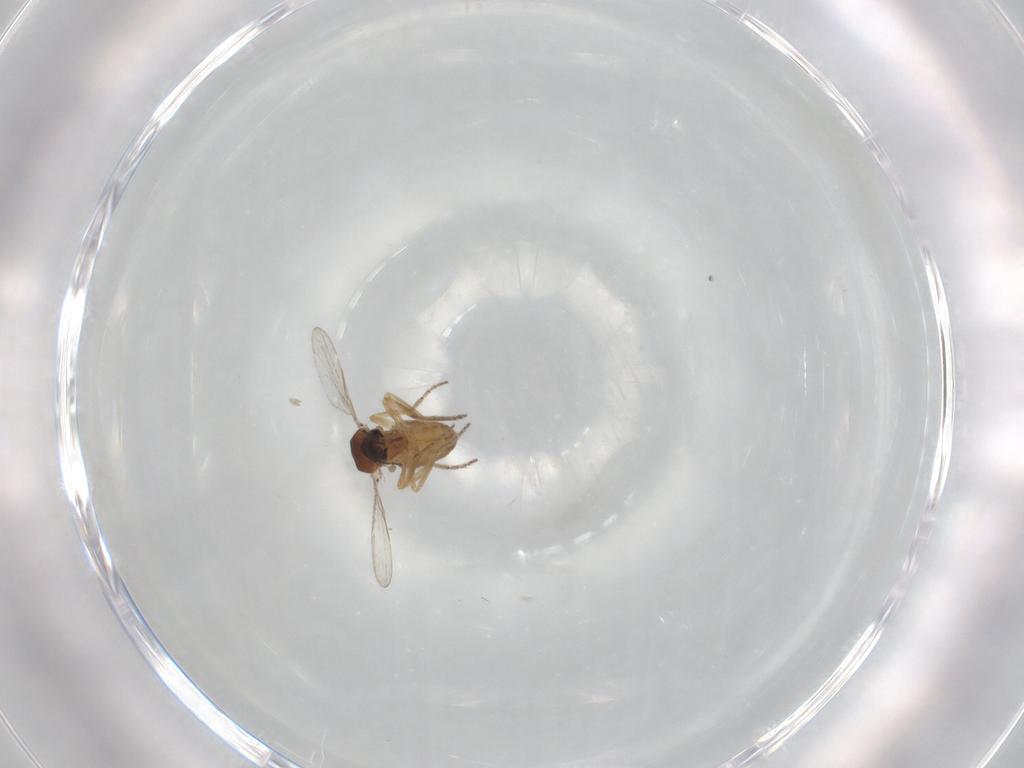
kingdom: Animalia
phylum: Arthropoda
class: Insecta
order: Diptera
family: Ceratopogonidae
